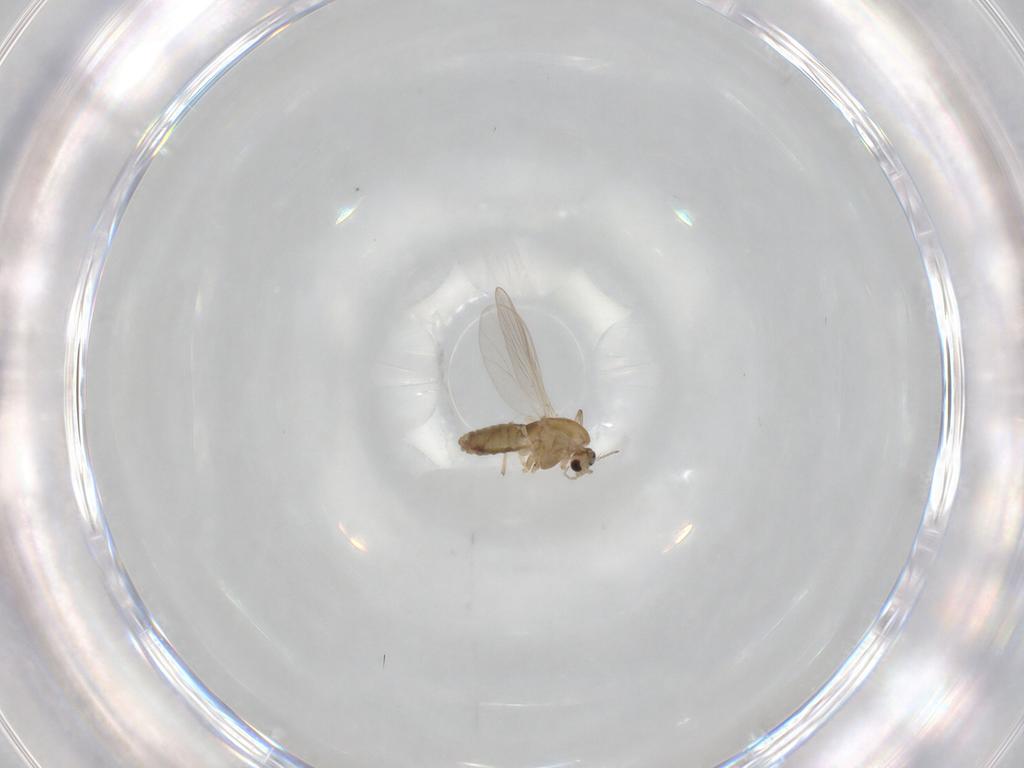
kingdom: Animalia
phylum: Arthropoda
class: Insecta
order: Diptera
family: Chironomidae
